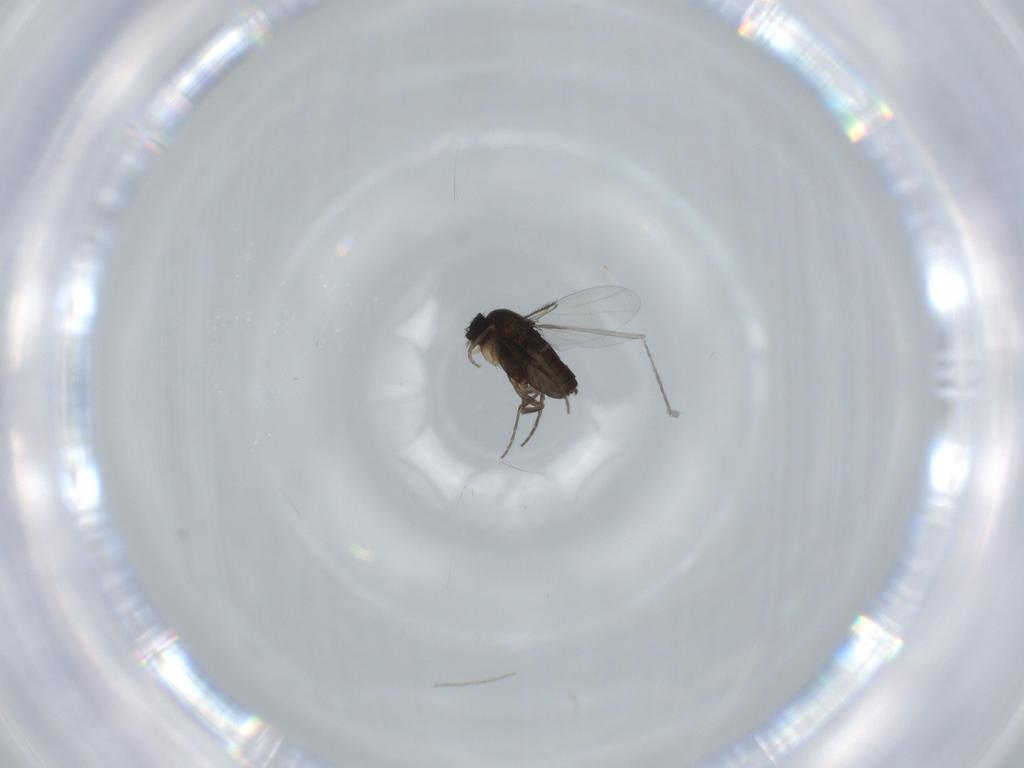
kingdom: Animalia
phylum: Arthropoda
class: Insecta
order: Diptera
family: Phoridae
